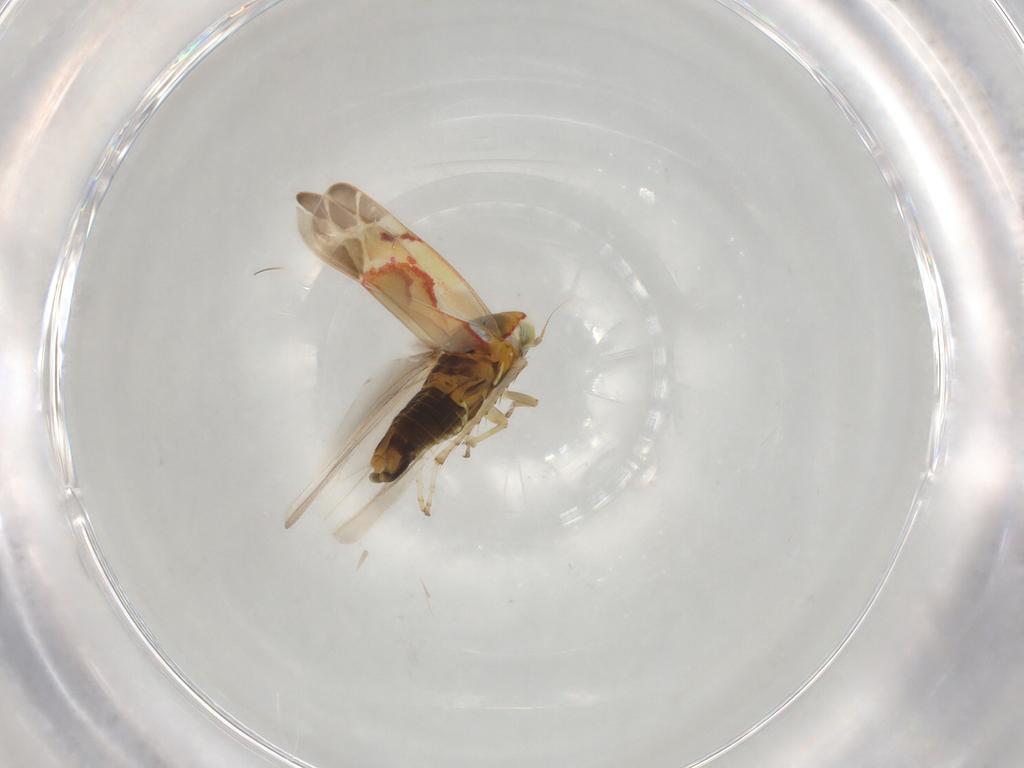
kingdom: Animalia
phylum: Arthropoda
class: Insecta
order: Hemiptera
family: Cicadellidae
